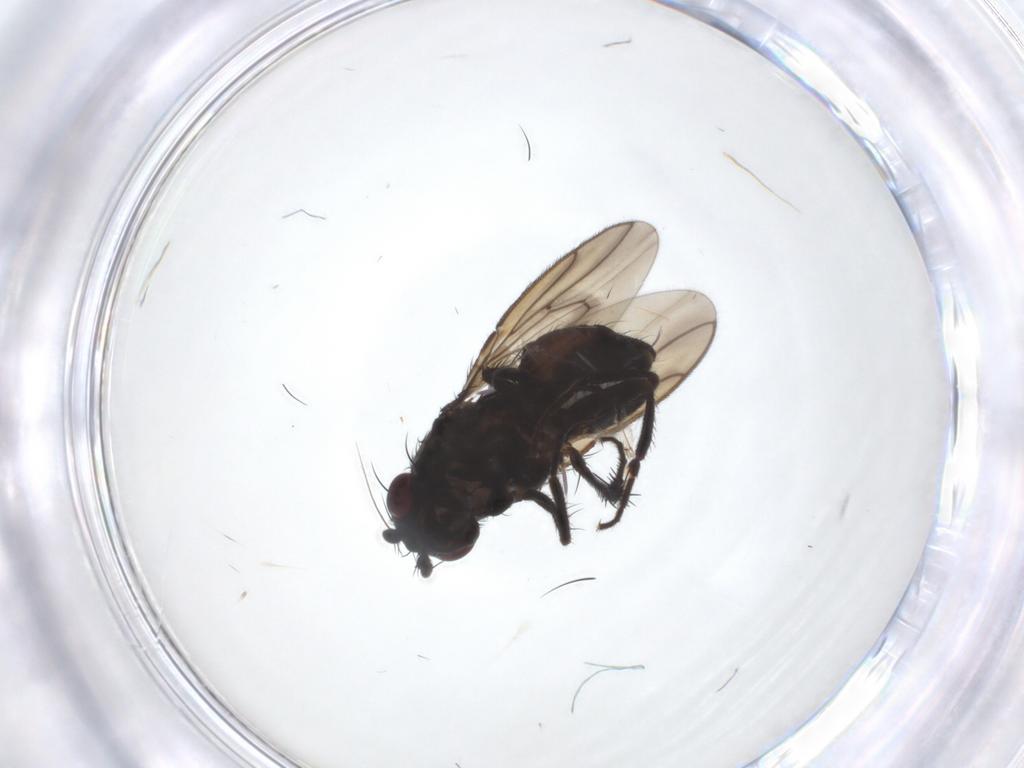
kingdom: Animalia
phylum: Arthropoda
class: Insecta
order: Diptera
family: Sphaeroceridae
